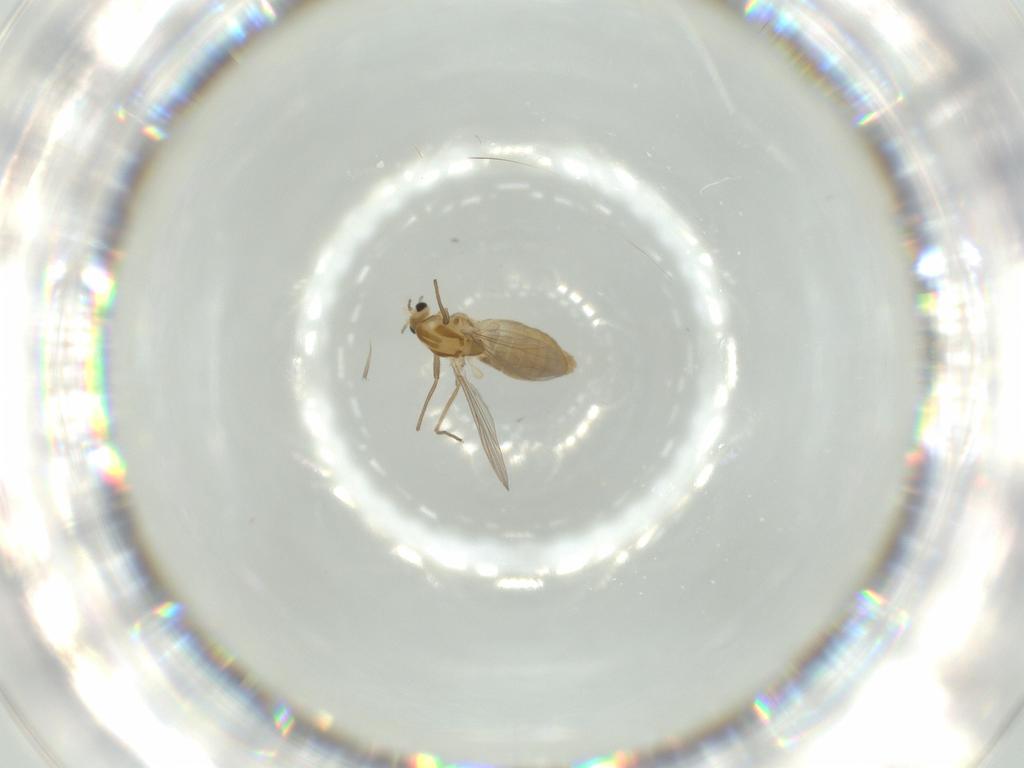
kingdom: Animalia
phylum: Arthropoda
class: Insecta
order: Diptera
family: Chironomidae
